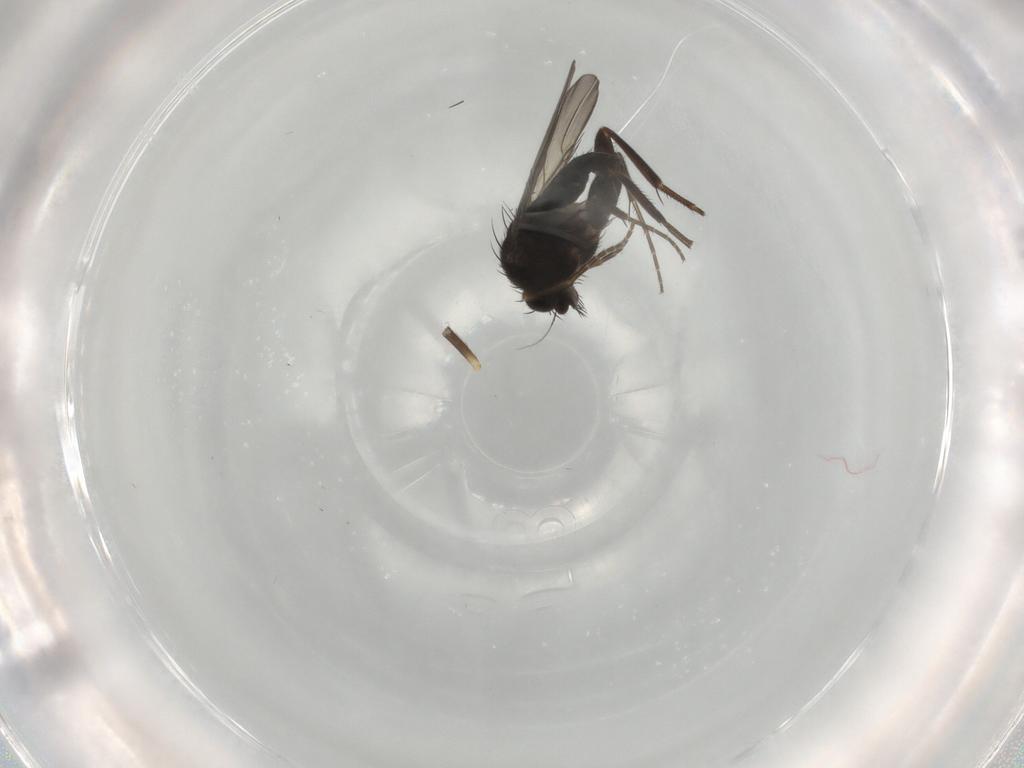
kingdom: Animalia
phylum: Arthropoda
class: Insecta
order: Diptera
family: Phoridae
